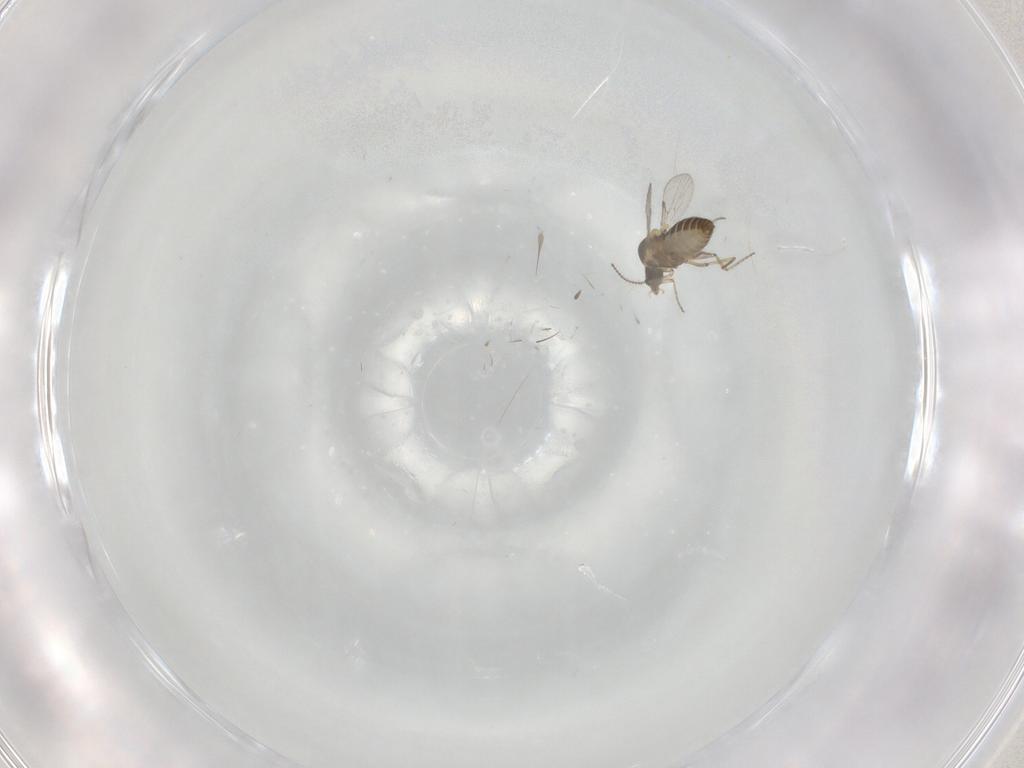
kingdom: Animalia
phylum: Arthropoda
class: Insecta
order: Diptera
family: Ceratopogonidae
